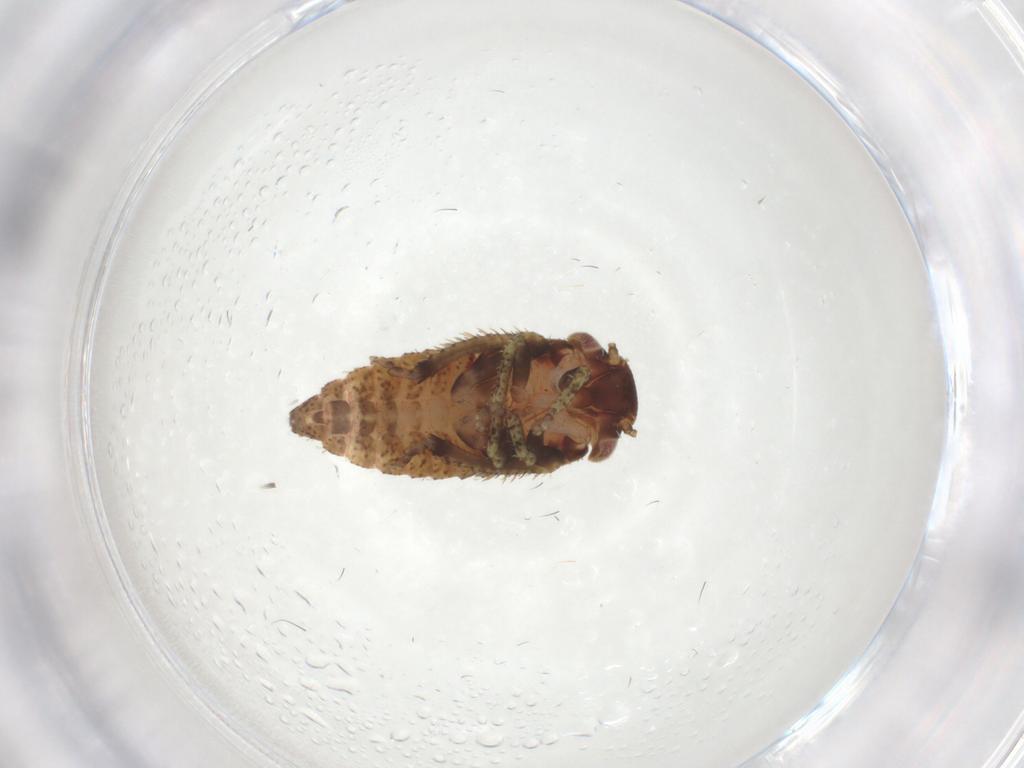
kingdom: Animalia
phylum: Arthropoda
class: Insecta
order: Hemiptera
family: Cicadellidae
